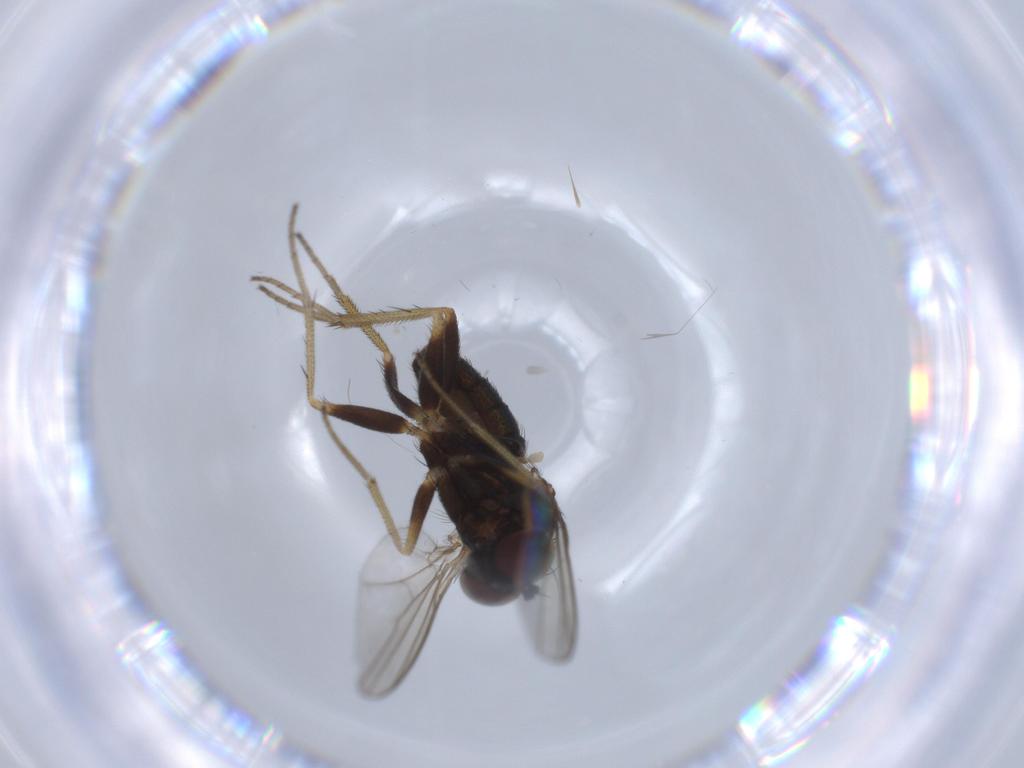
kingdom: Animalia
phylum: Arthropoda
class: Insecta
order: Diptera
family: Dolichopodidae
